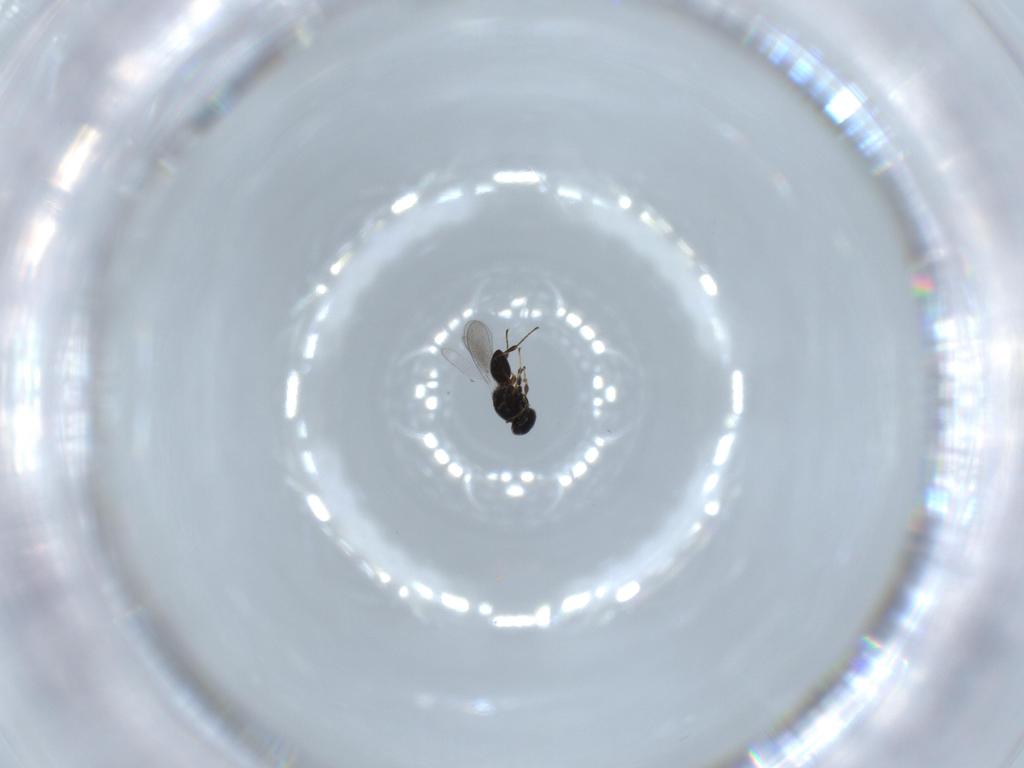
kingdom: Animalia
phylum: Arthropoda
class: Insecta
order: Hymenoptera
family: Platygastridae
